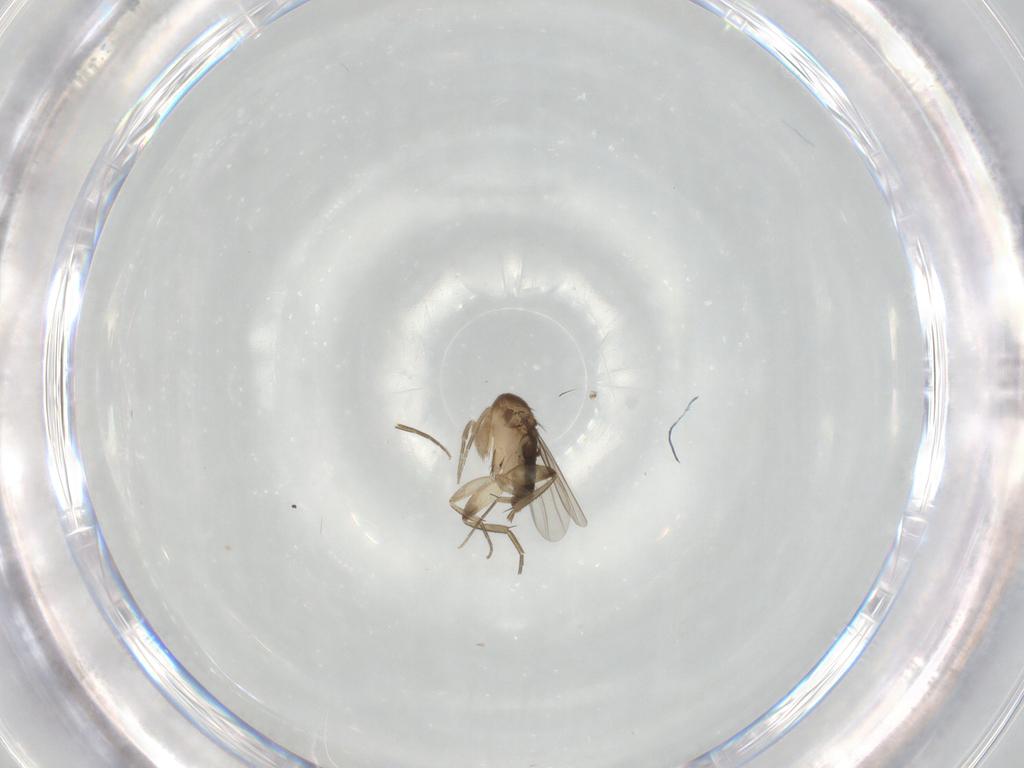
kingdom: Animalia
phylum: Arthropoda
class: Insecta
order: Diptera
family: Phoridae
